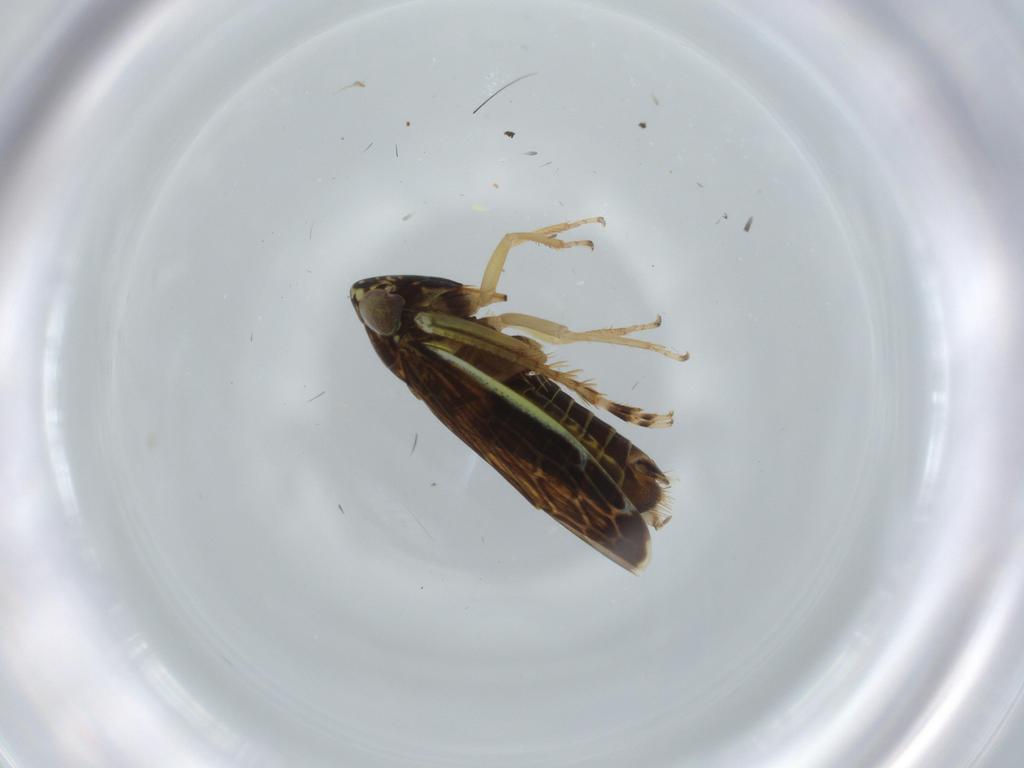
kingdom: Animalia
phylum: Arthropoda
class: Insecta
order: Hemiptera
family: Cicadellidae
